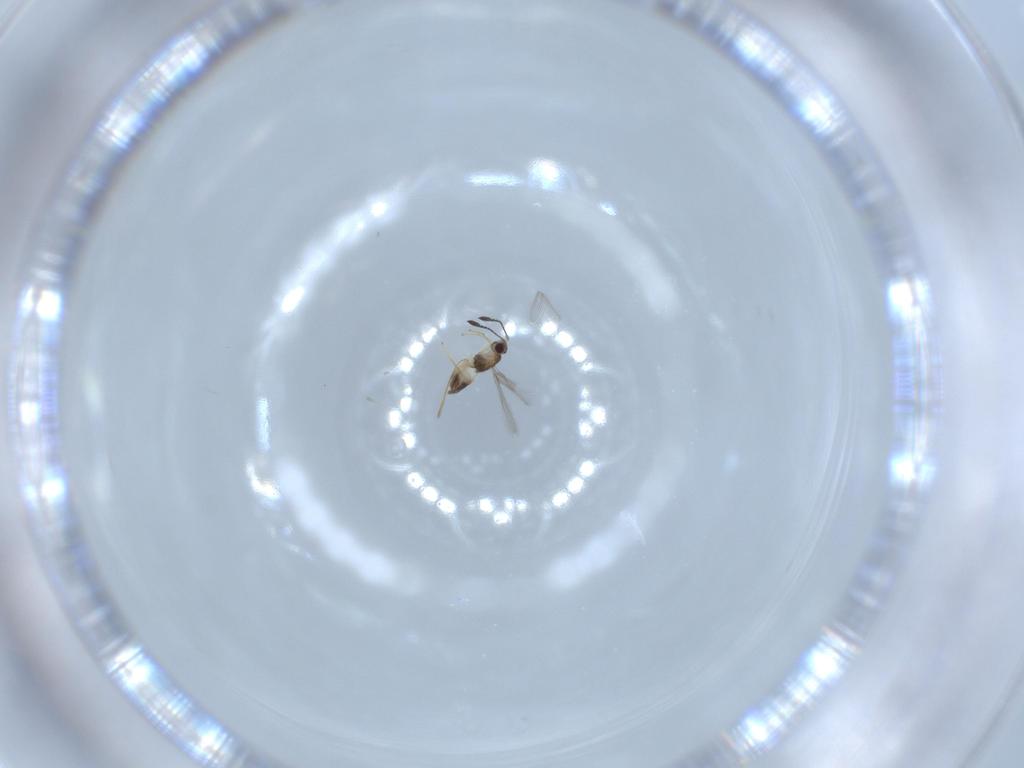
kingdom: Animalia
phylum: Arthropoda
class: Insecta
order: Hymenoptera
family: Mymaridae
